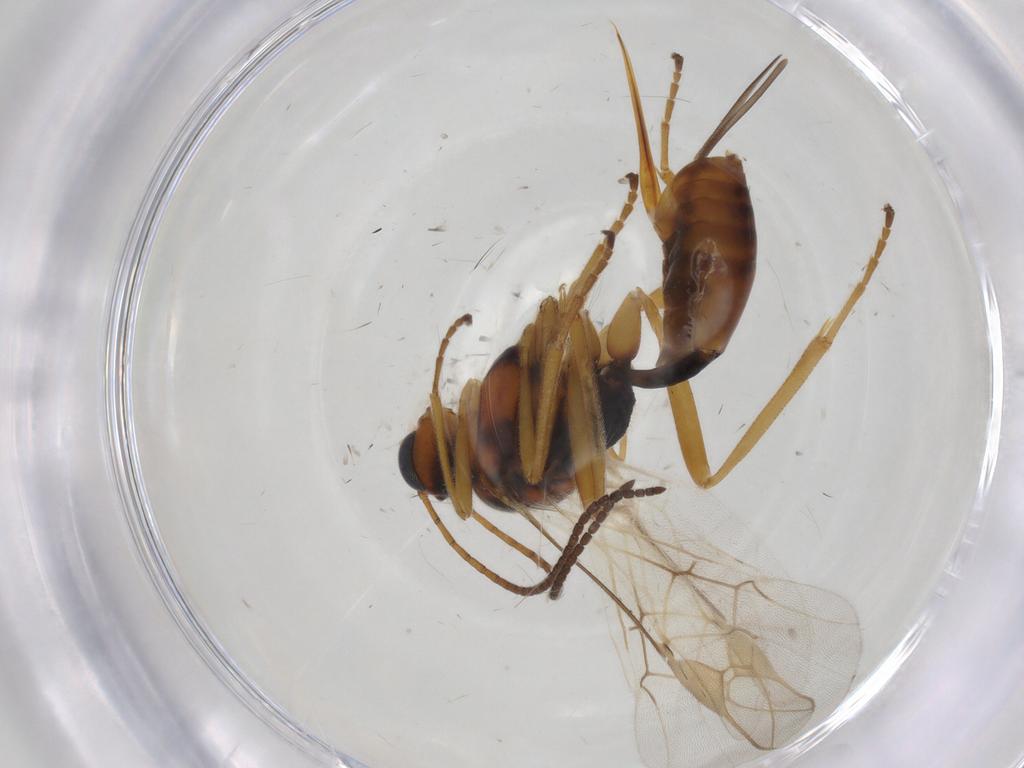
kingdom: Animalia
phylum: Arthropoda
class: Insecta
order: Hymenoptera
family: Braconidae
